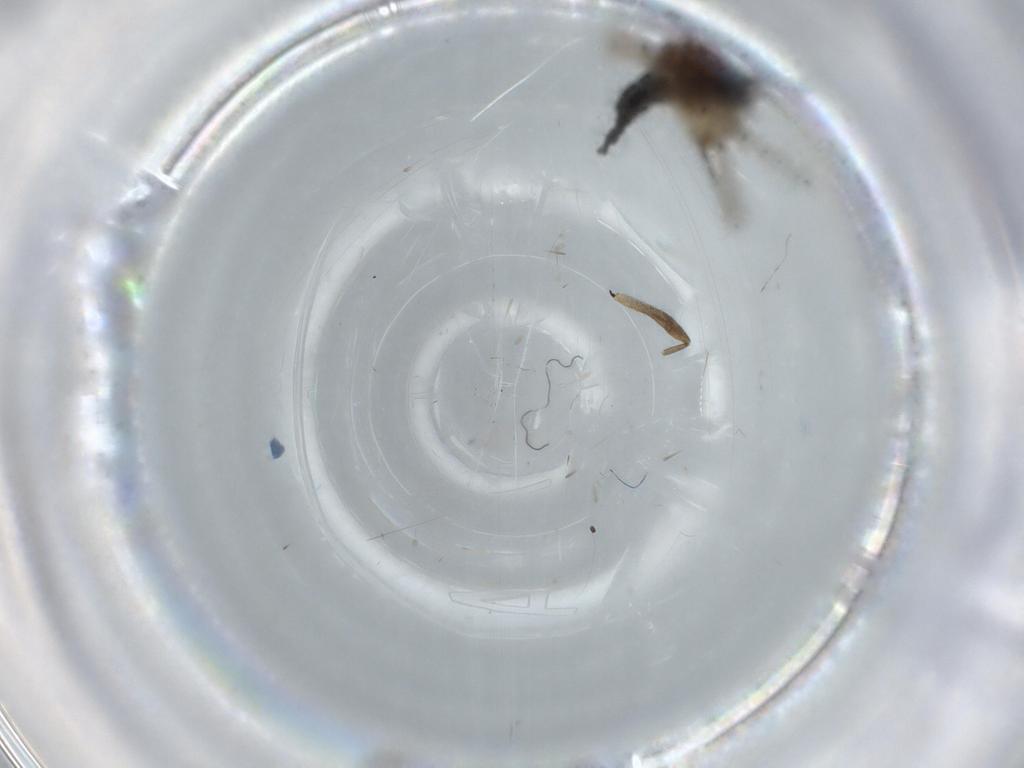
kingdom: Animalia
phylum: Arthropoda
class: Insecta
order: Diptera
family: Sciaridae
